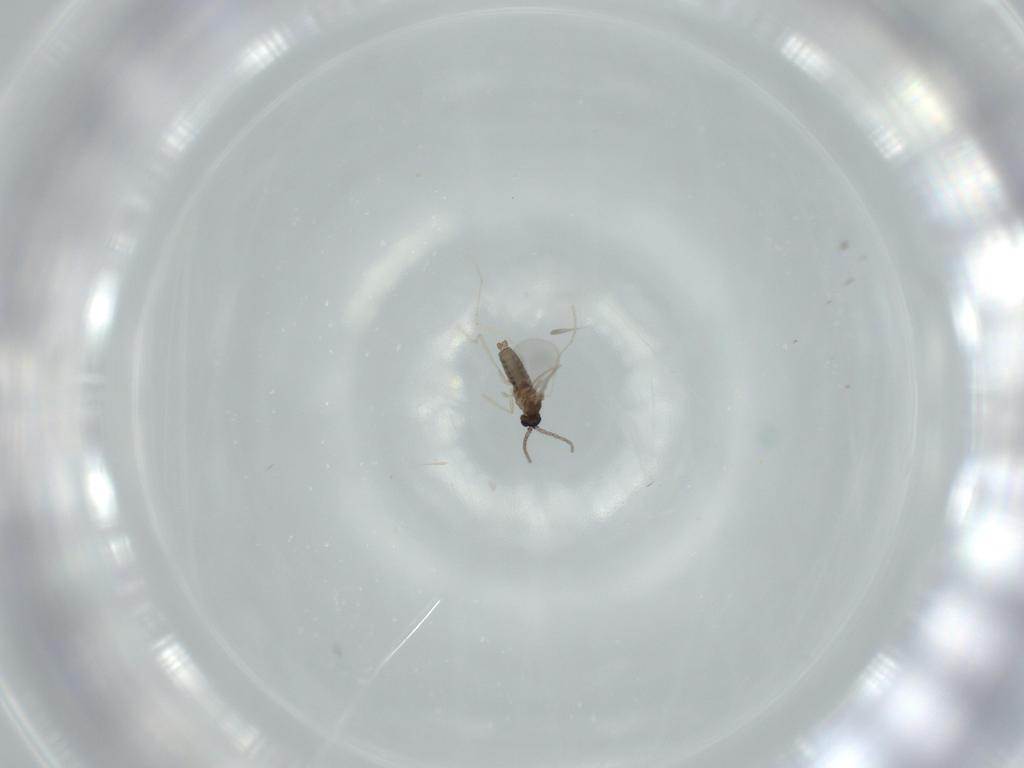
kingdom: Animalia
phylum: Arthropoda
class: Insecta
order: Diptera
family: Cecidomyiidae
